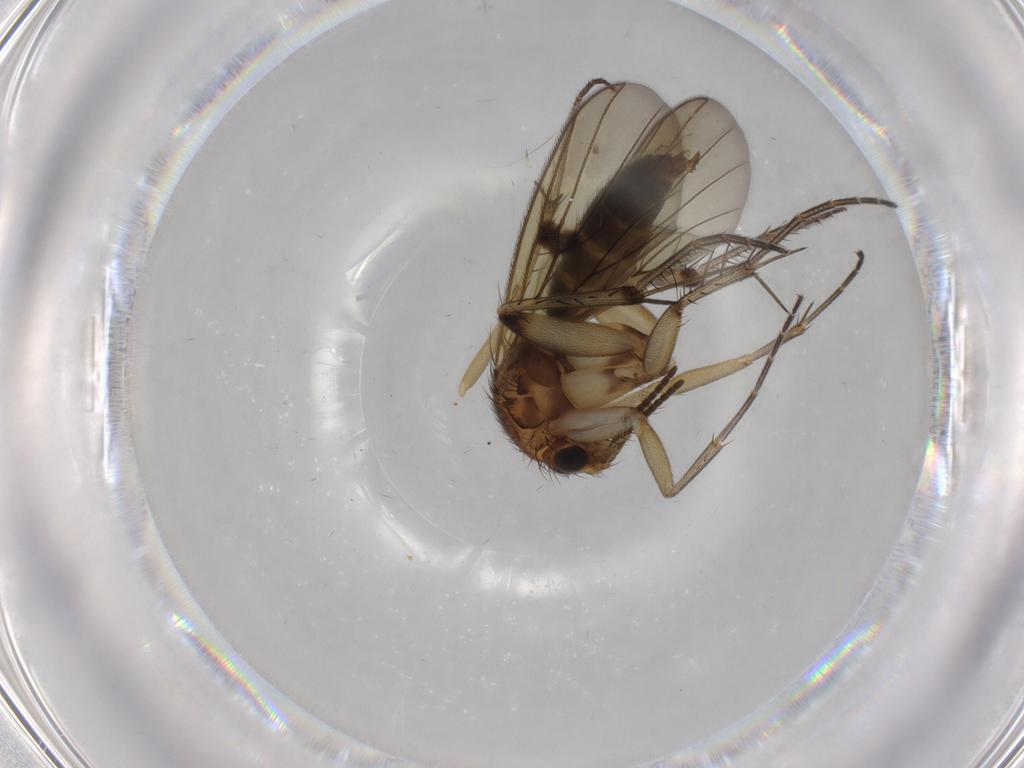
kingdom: Animalia
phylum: Arthropoda
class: Insecta
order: Diptera
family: Mycetophilidae
